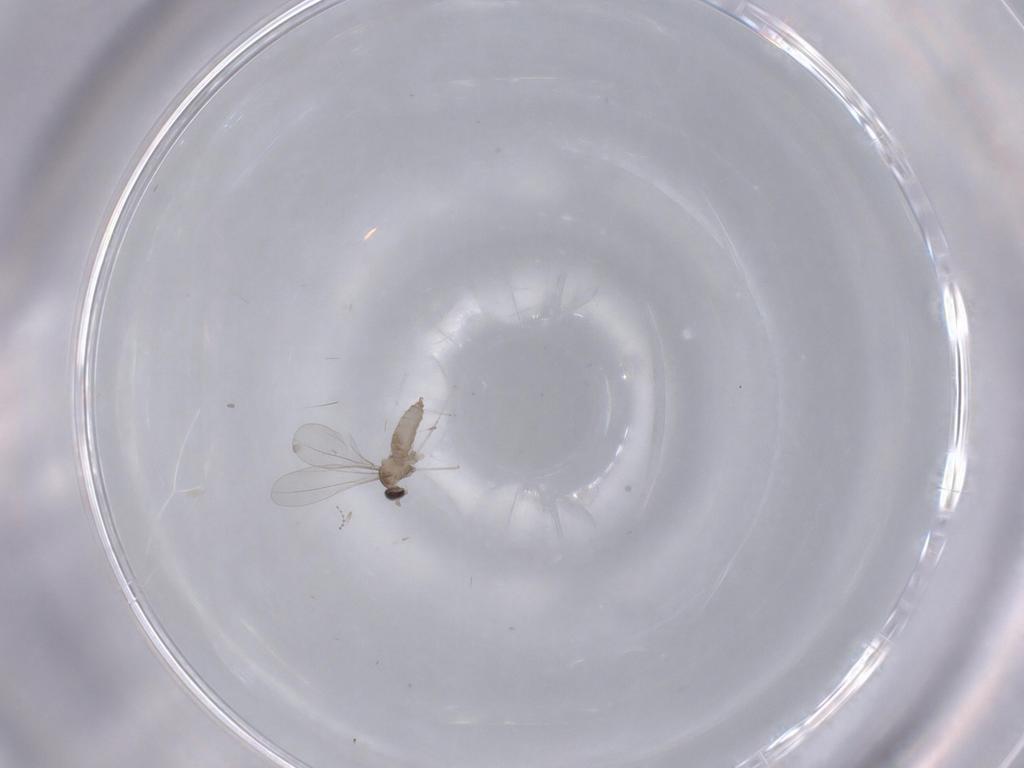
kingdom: Animalia
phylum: Arthropoda
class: Insecta
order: Diptera
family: Cecidomyiidae
